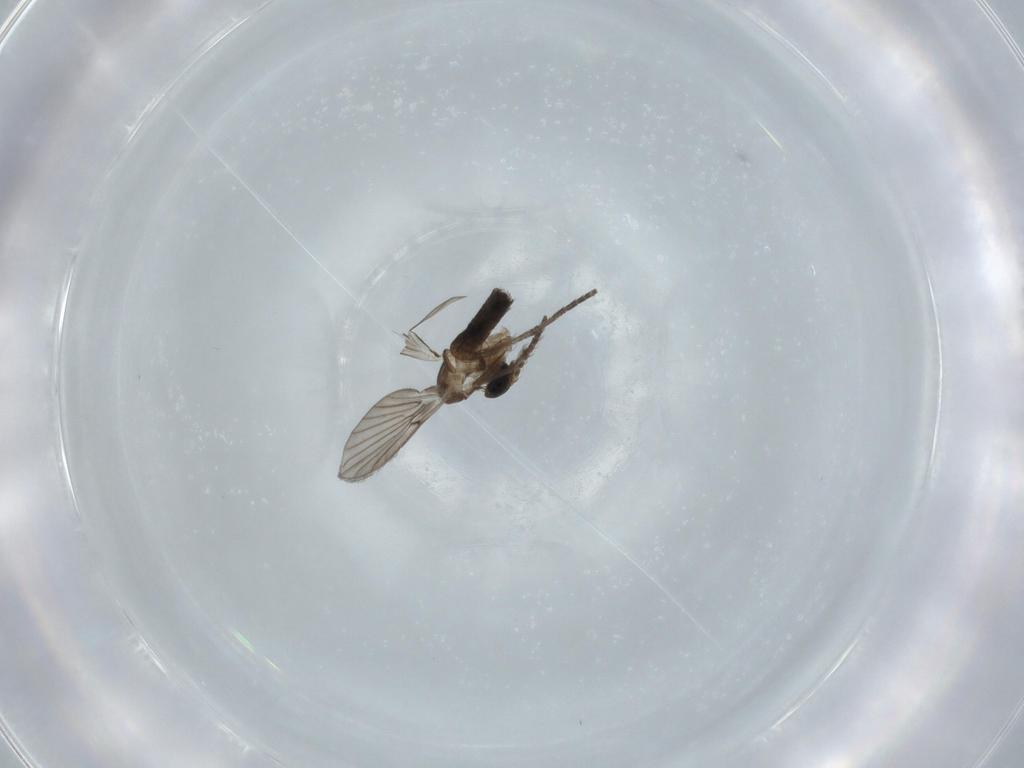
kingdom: Animalia
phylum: Arthropoda
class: Insecta
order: Diptera
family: Psychodidae
